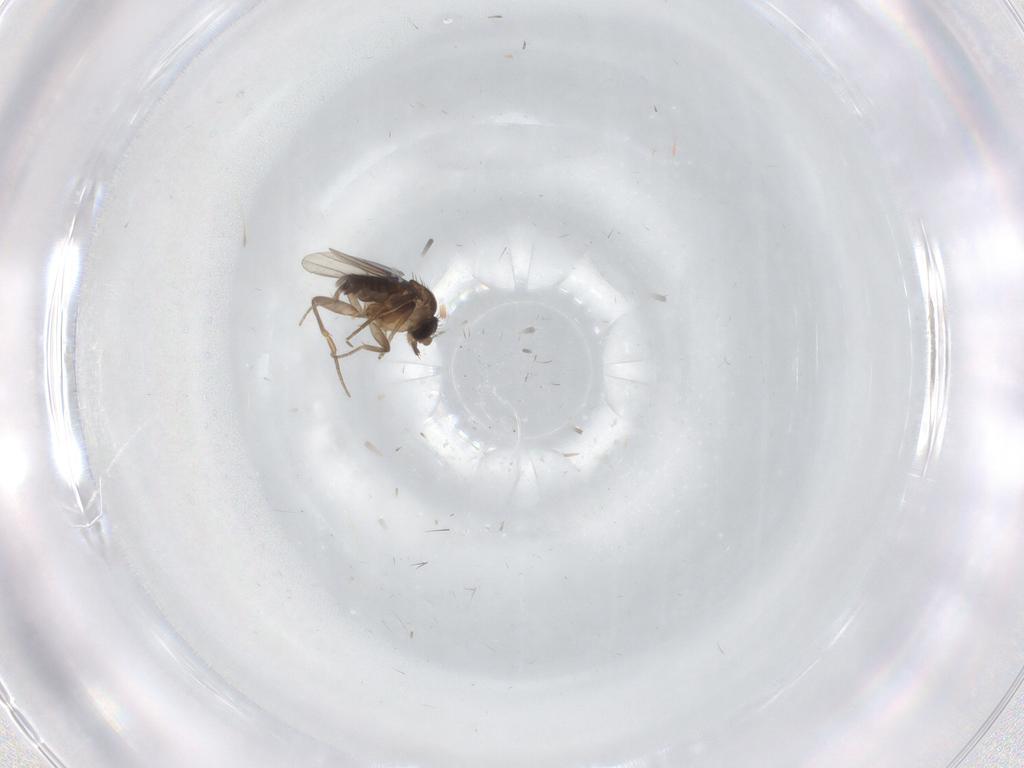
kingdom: Animalia
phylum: Arthropoda
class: Insecta
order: Diptera
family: Phoridae
